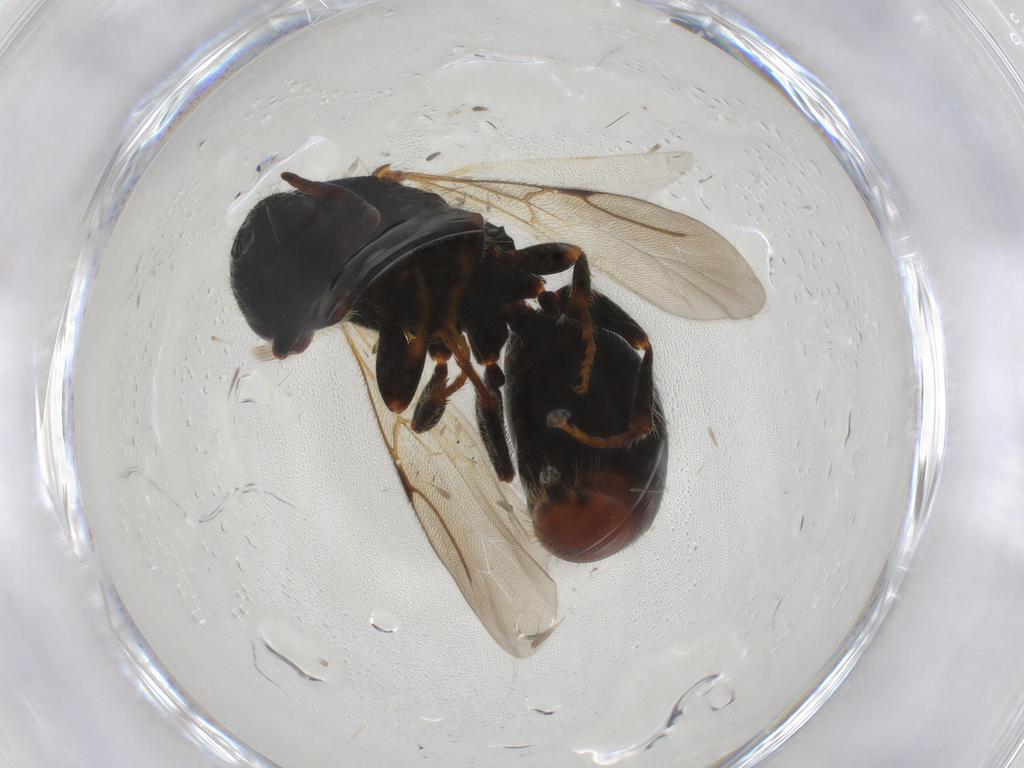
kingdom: Animalia
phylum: Arthropoda
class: Insecta
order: Hymenoptera
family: Bethylidae
